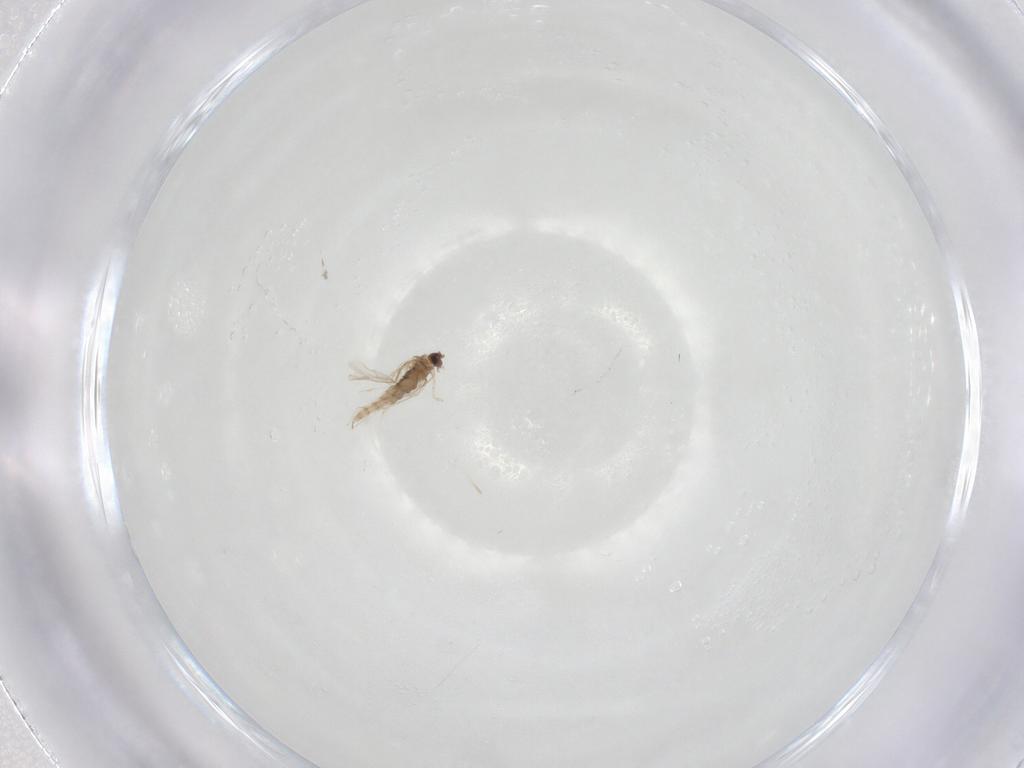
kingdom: Animalia
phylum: Arthropoda
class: Insecta
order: Diptera
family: Cecidomyiidae
